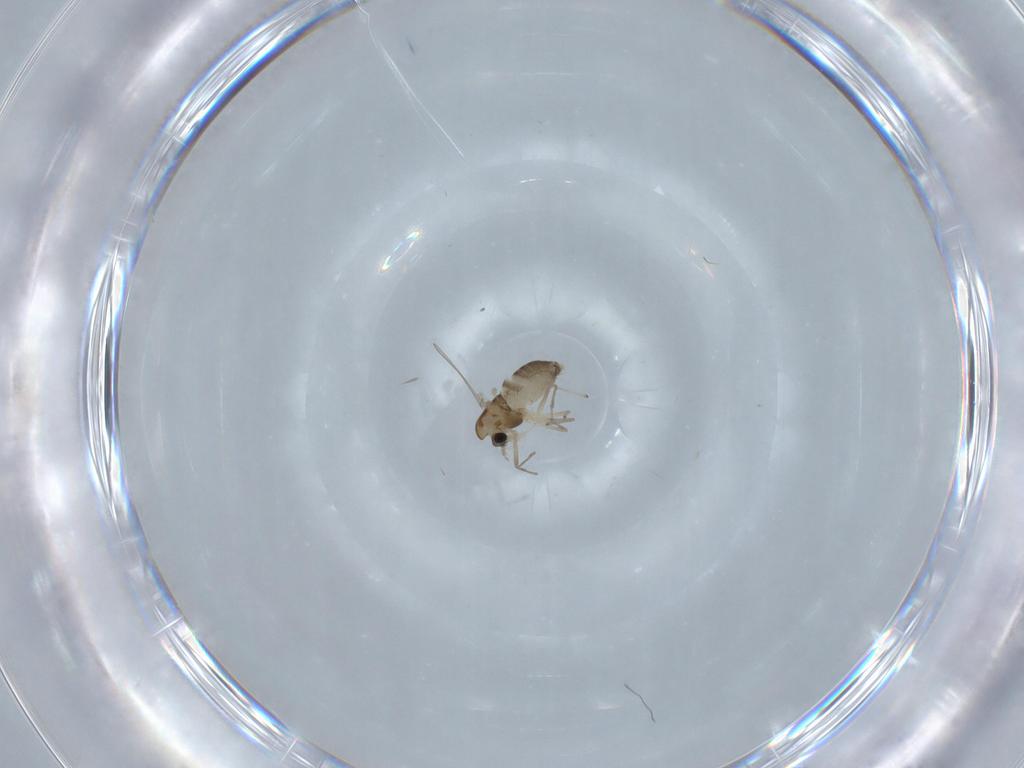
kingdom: Animalia
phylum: Arthropoda
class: Insecta
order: Diptera
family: Chironomidae
